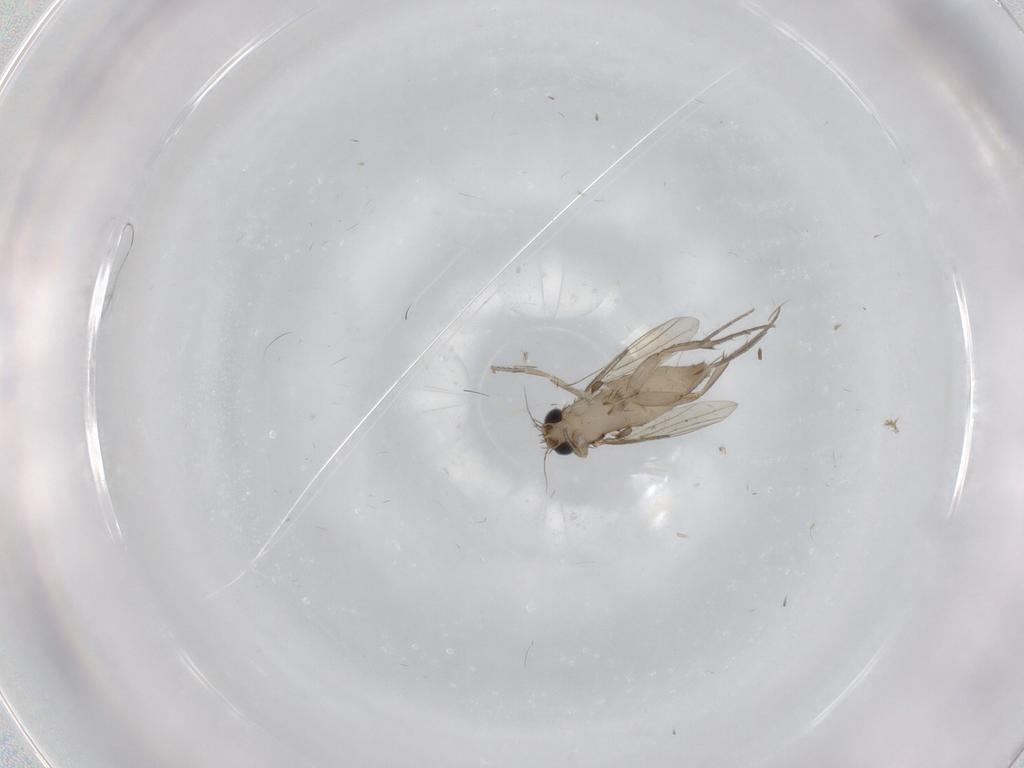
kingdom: Animalia
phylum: Arthropoda
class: Insecta
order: Diptera
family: Phoridae
